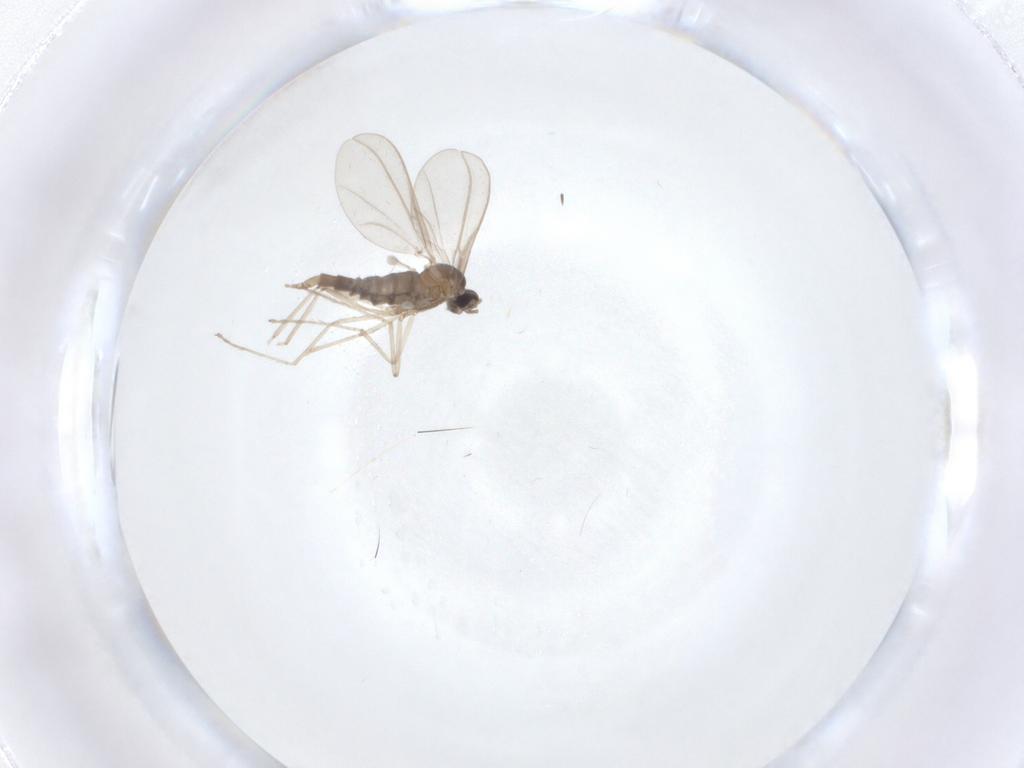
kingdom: Animalia
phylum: Arthropoda
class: Insecta
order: Diptera
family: Cecidomyiidae
